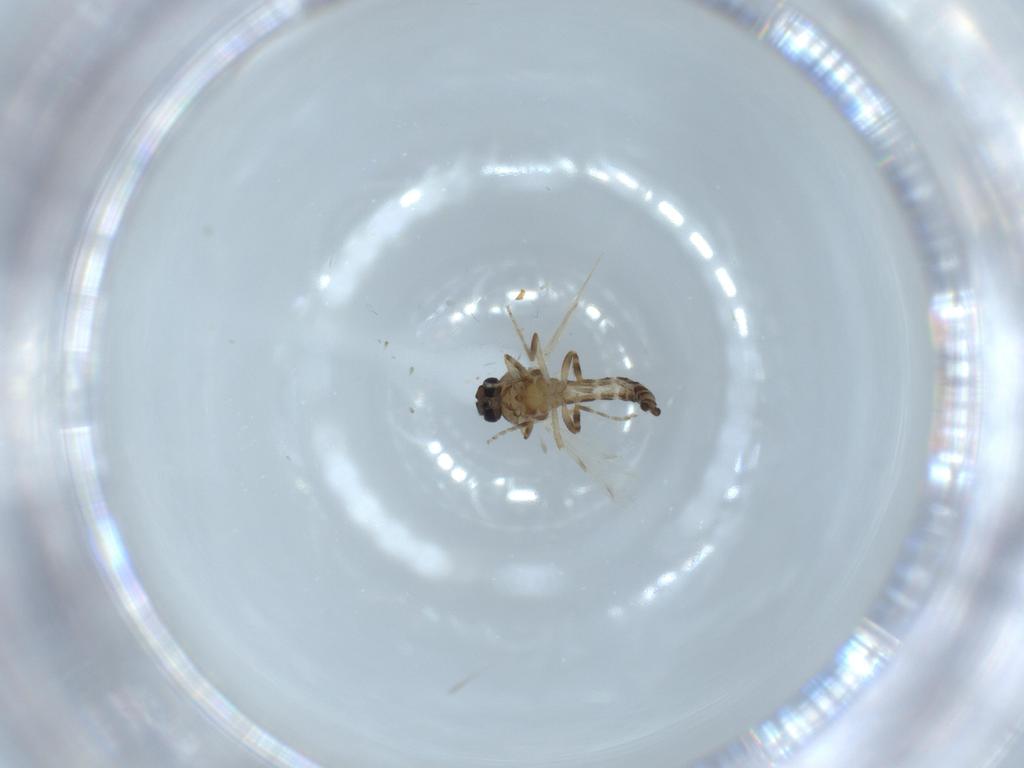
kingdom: Animalia
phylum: Arthropoda
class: Insecta
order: Diptera
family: Ceratopogonidae
